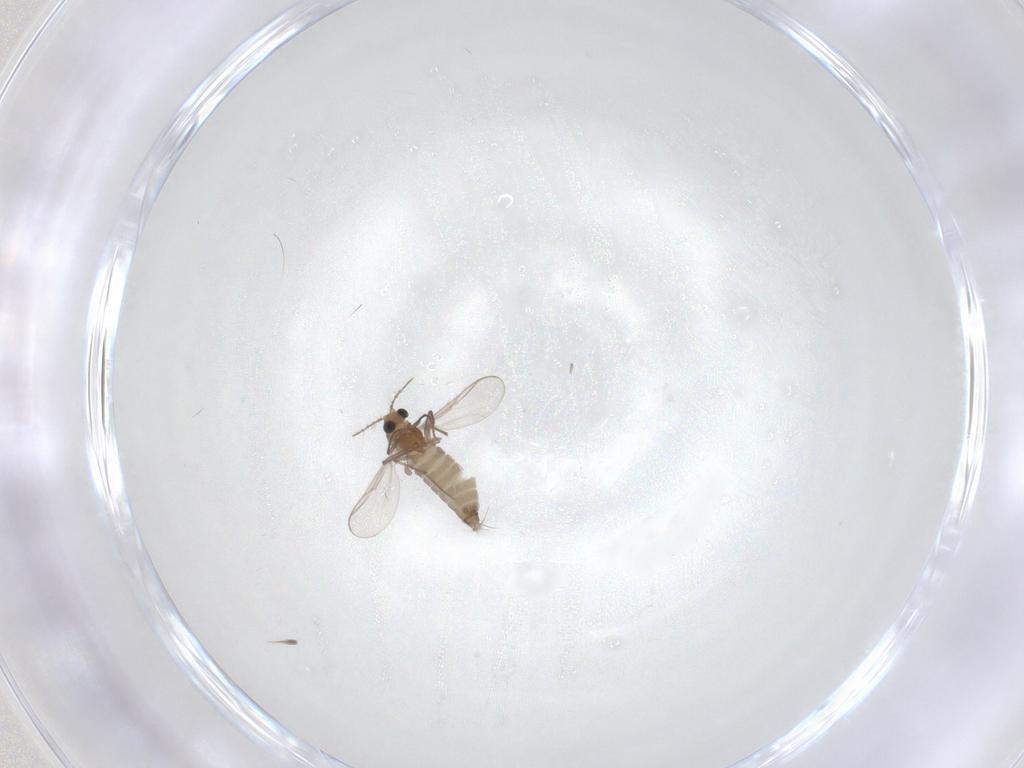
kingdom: Animalia
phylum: Arthropoda
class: Insecta
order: Diptera
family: Chironomidae
